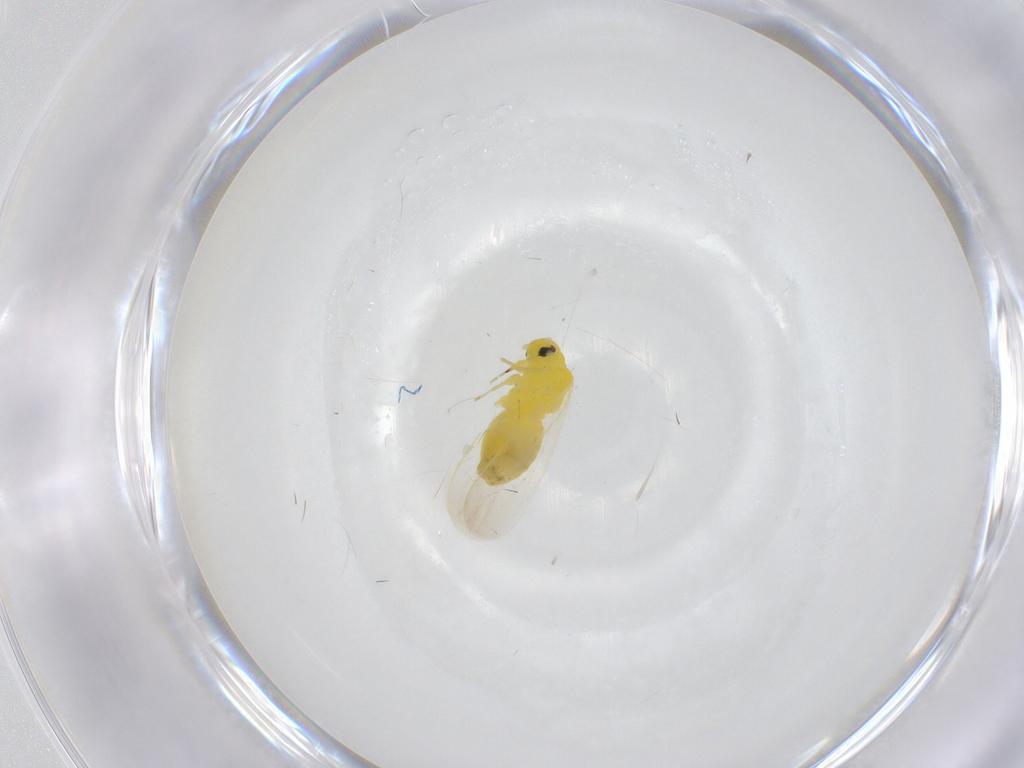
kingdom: Animalia
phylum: Arthropoda
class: Insecta
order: Hemiptera
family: Aleyrodidae
